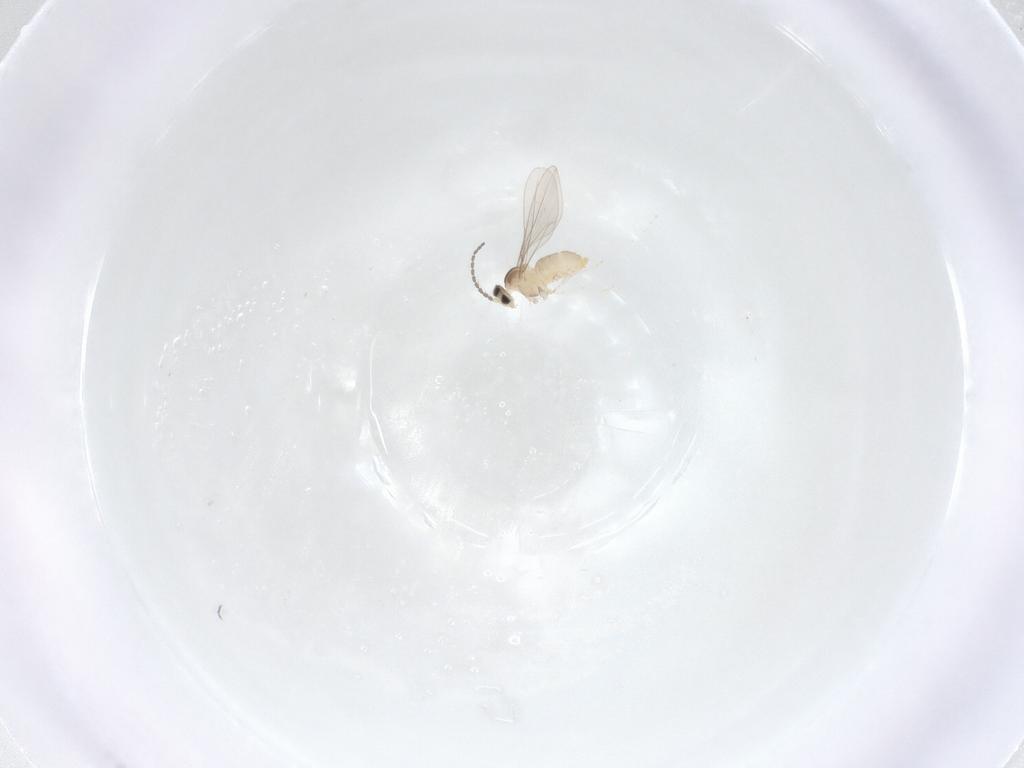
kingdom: Animalia
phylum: Arthropoda
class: Insecta
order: Diptera
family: Cecidomyiidae
